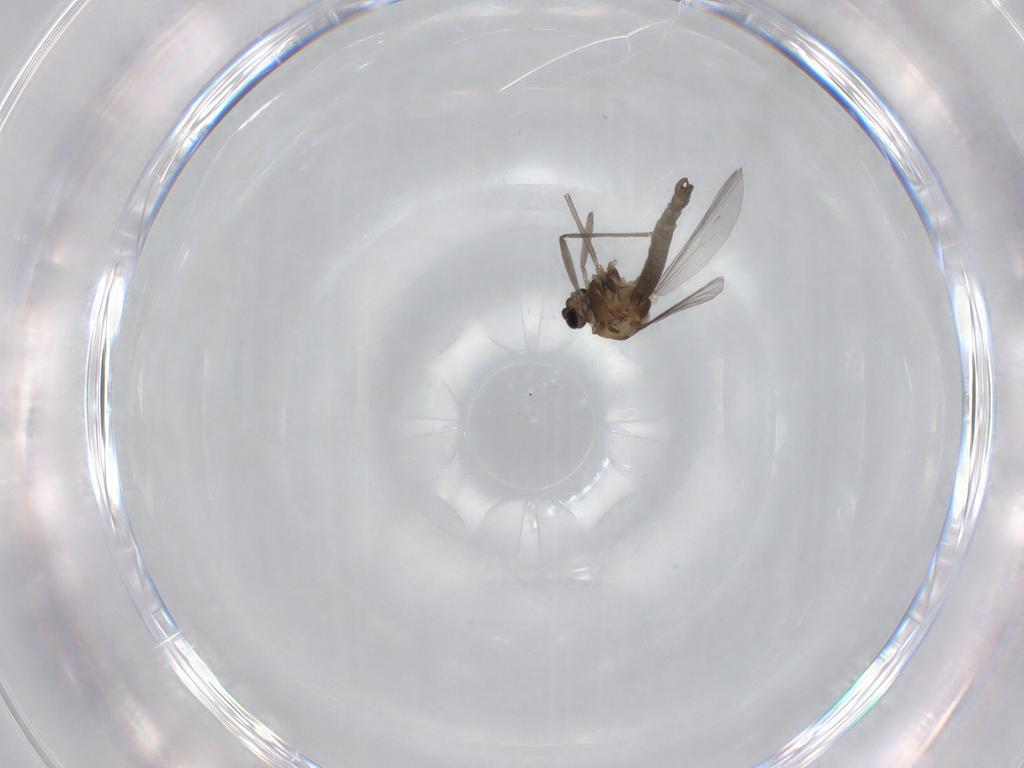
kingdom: Animalia
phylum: Arthropoda
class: Insecta
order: Diptera
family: Chironomidae
